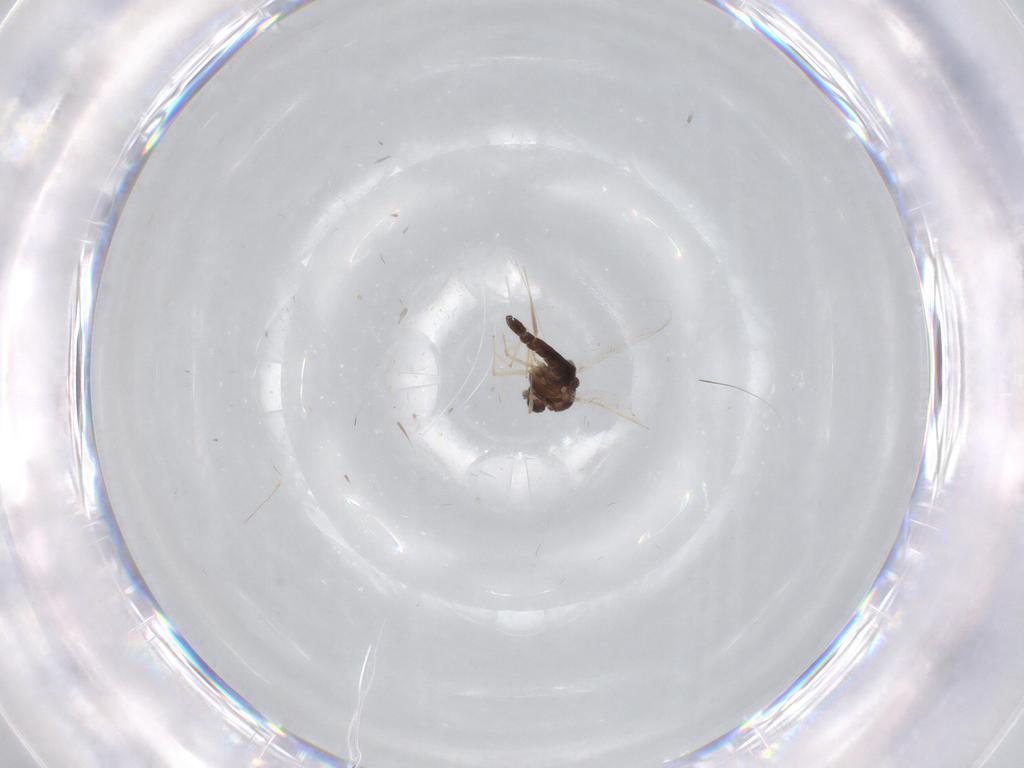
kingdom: Animalia
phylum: Arthropoda
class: Insecta
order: Diptera
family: Chironomidae
